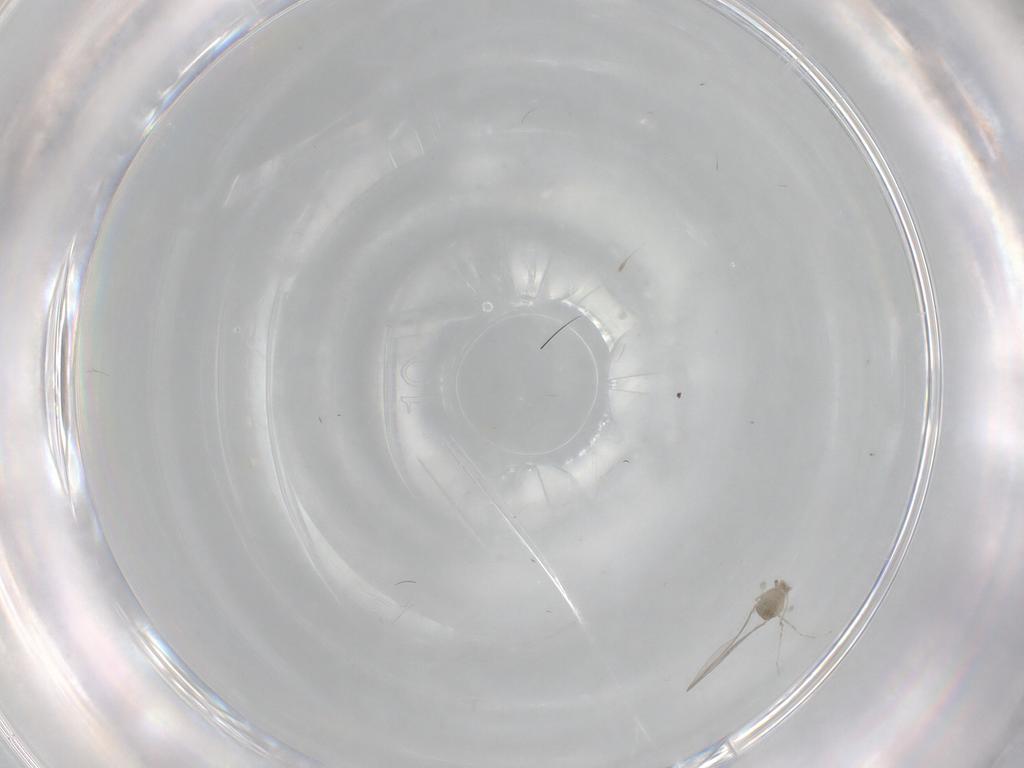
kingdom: Animalia
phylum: Arthropoda
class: Insecta
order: Diptera
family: Cecidomyiidae
